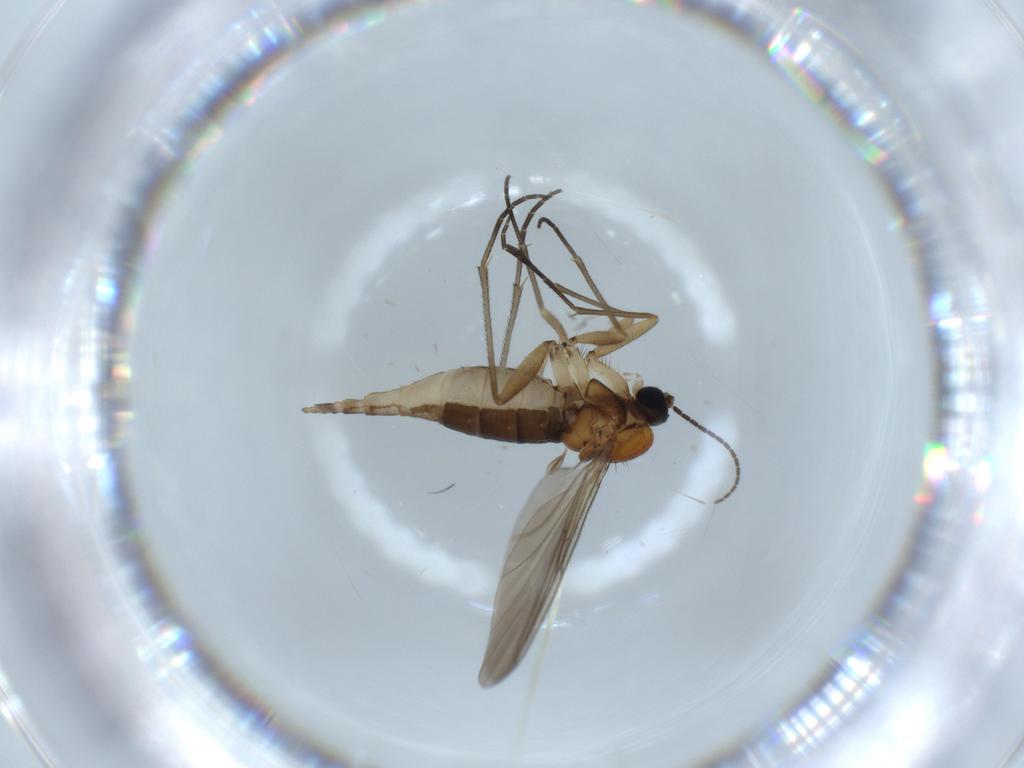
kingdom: Animalia
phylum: Arthropoda
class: Insecta
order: Diptera
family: Sciaridae
